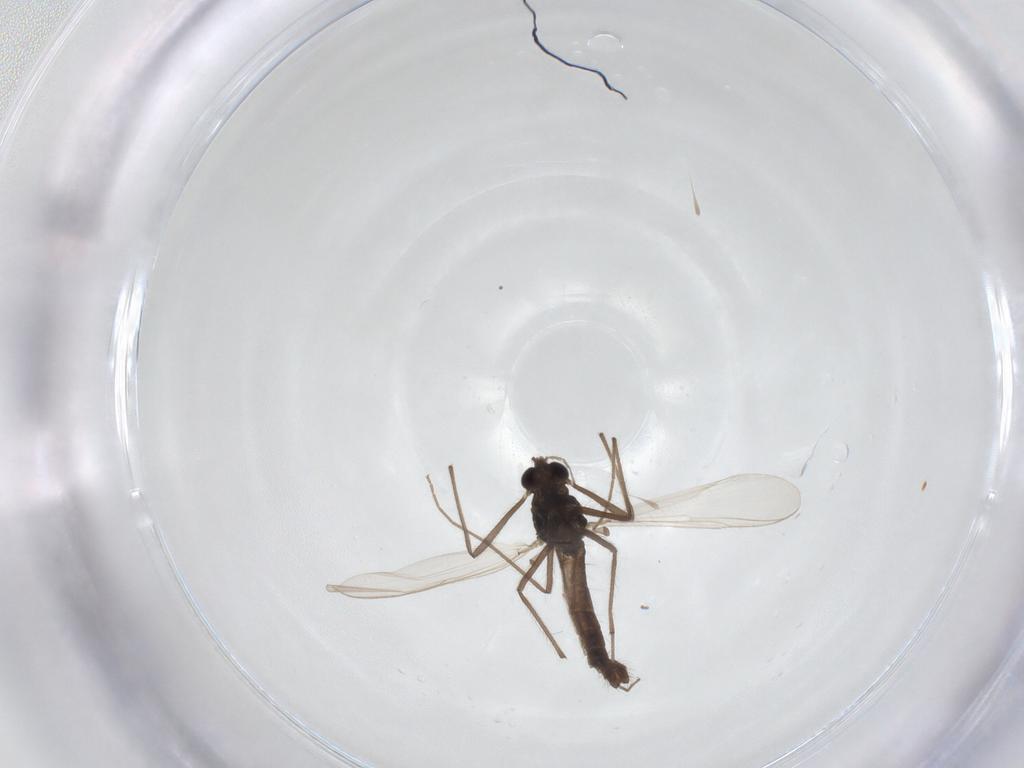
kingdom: Animalia
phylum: Arthropoda
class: Insecta
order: Diptera
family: Chironomidae
